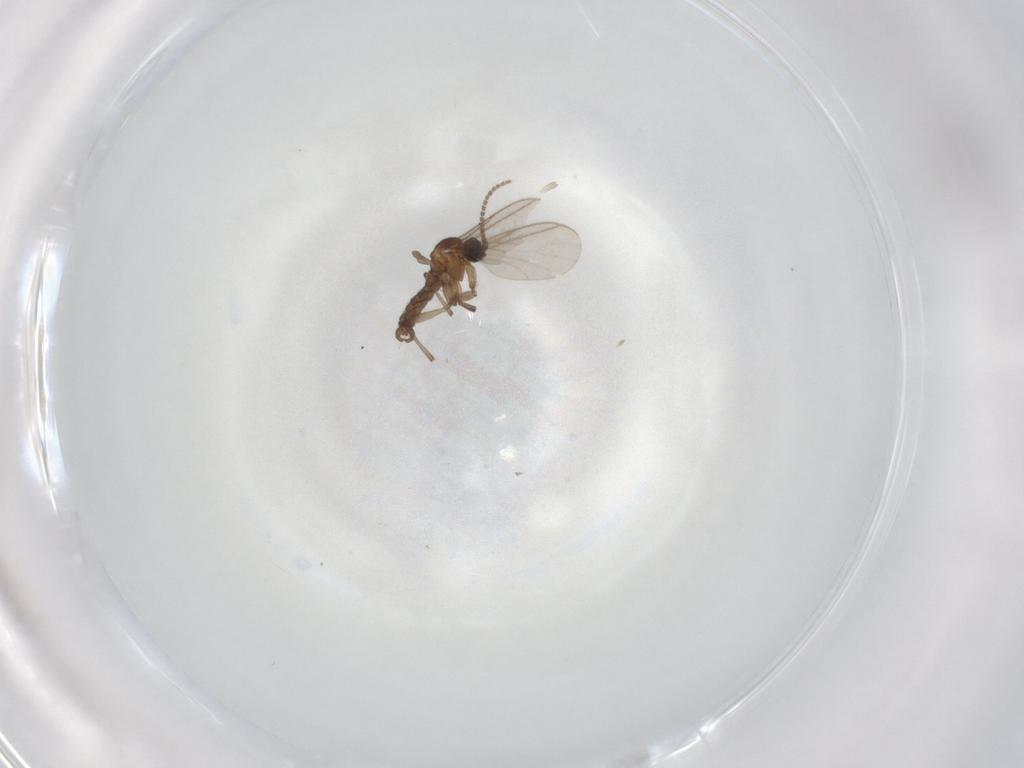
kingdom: Animalia
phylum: Arthropoda
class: Insecta
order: Diptera
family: Ceratopogonidae
